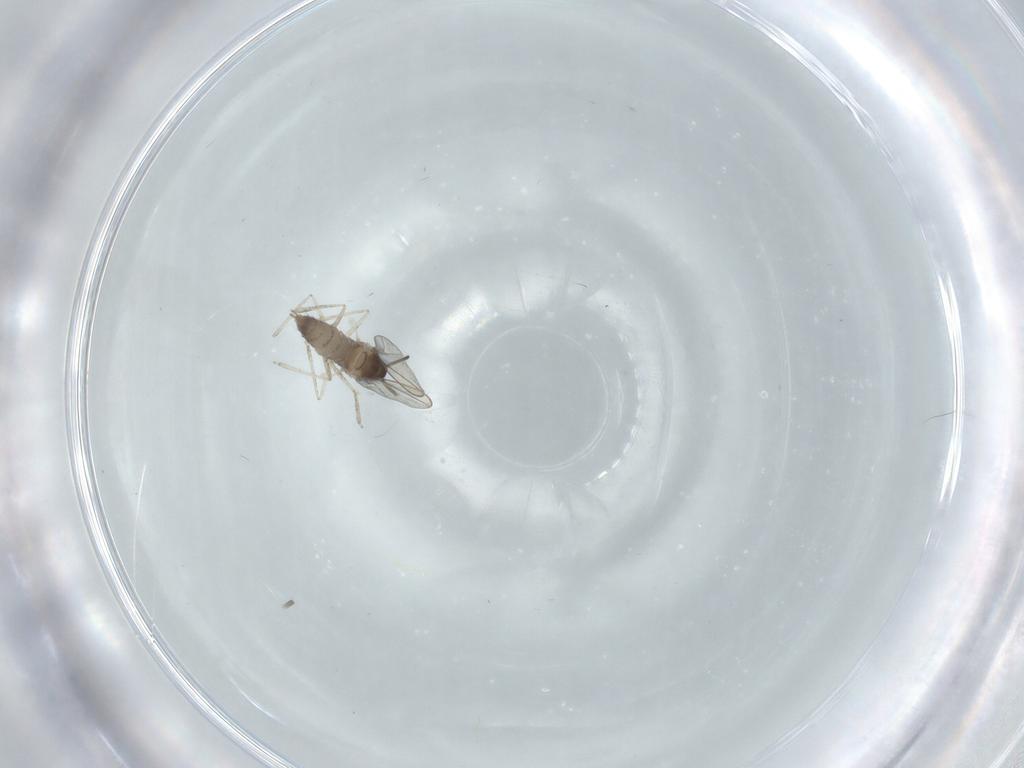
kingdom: Animalia
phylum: Arthropoda
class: Insecta
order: Diptera
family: Cecidomyiidae
